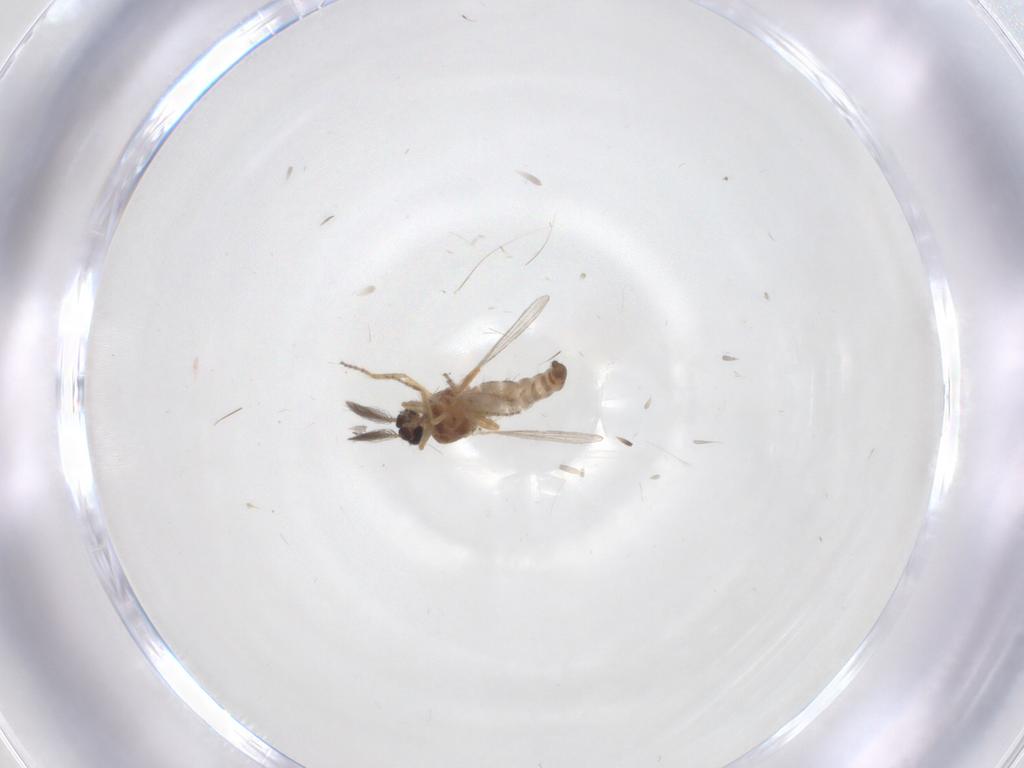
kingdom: Animalia
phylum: Arthropoda
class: Insecta
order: Diptera
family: Ceratopogonidae
